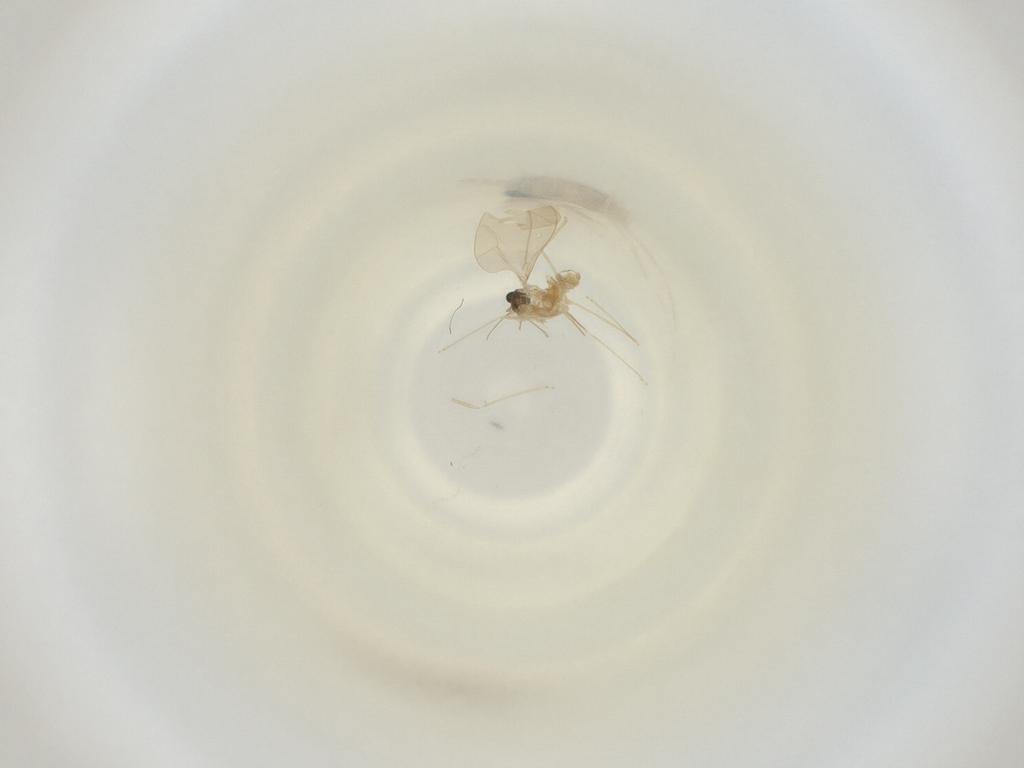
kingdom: Animalia
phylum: Arthropoda
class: Insecta
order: Diptera
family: Cecidomyiidae
